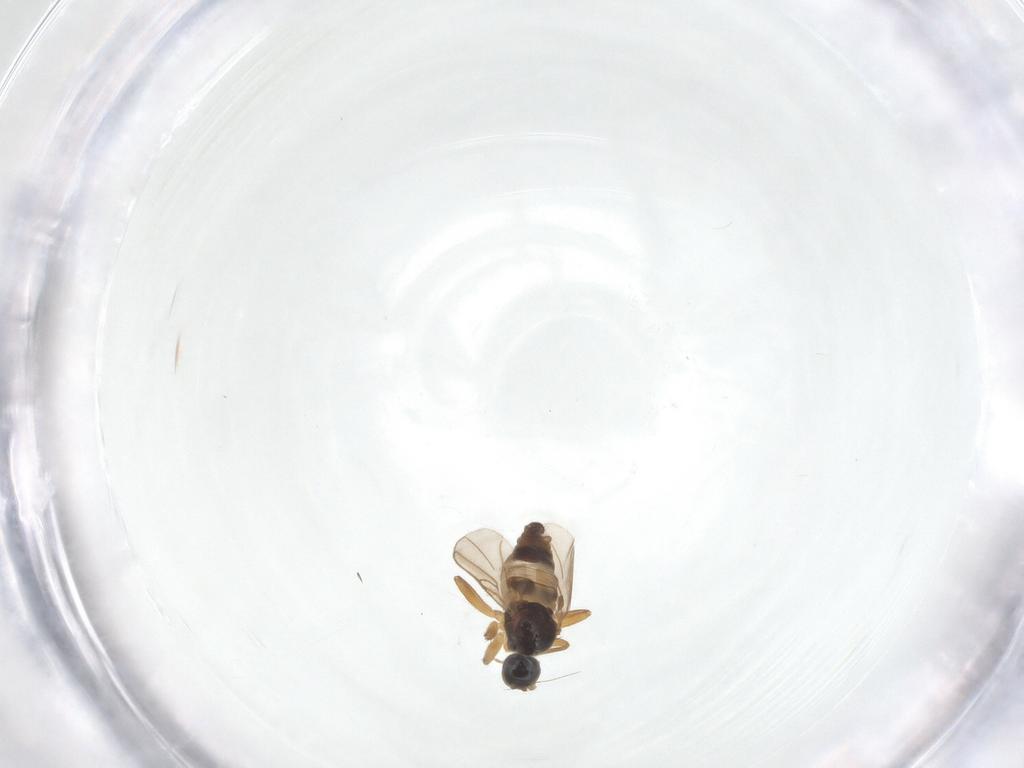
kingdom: Animalia
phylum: Arthropoda
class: Insecta
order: Diptera
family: Hybotidae
